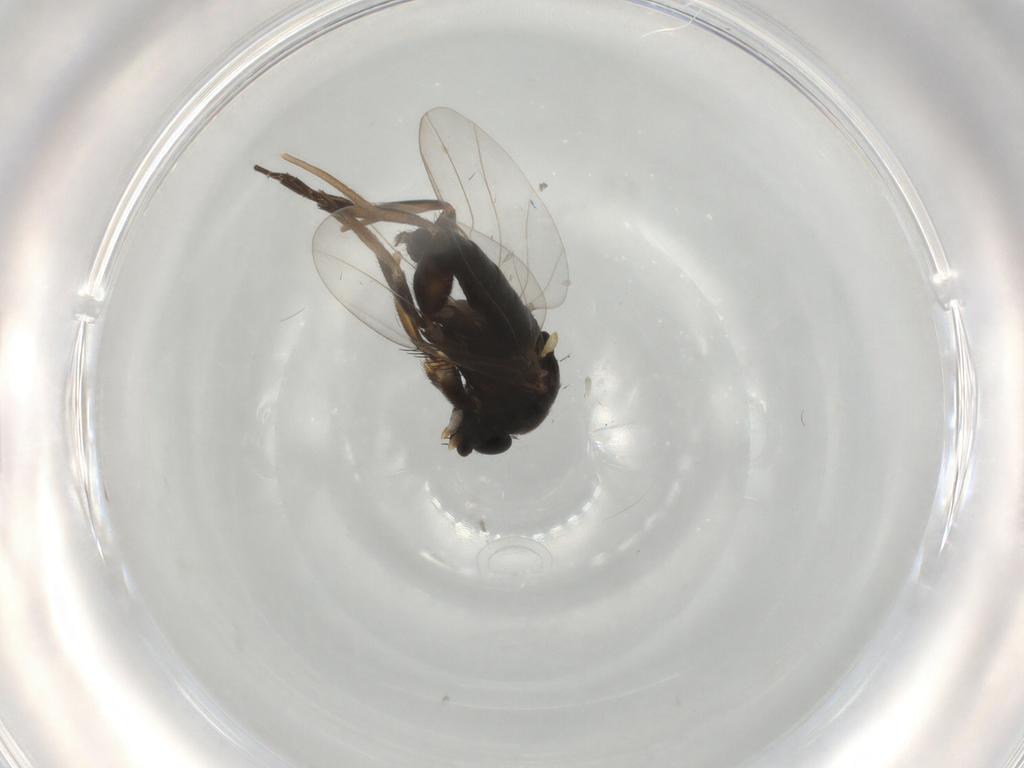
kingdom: Animalia
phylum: Arthropoda
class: Insecta
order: Diptera
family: Phoridae
